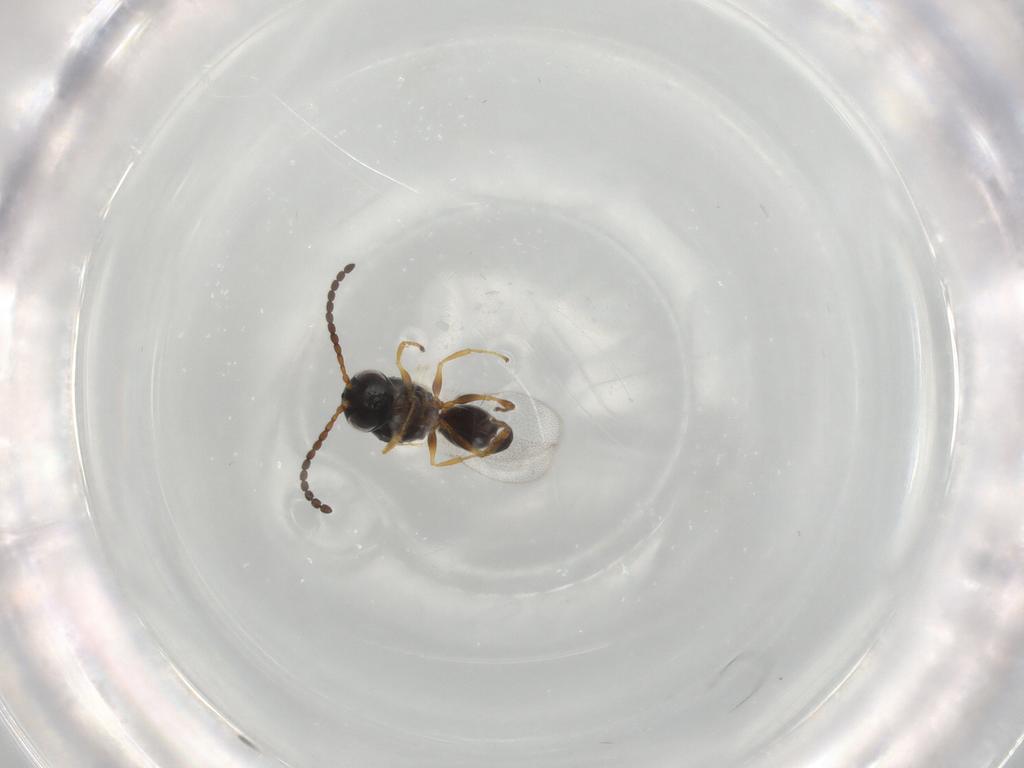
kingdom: Animalia
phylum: Arthropoda
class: Insecta
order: Hymenoptera
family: Figitidae
